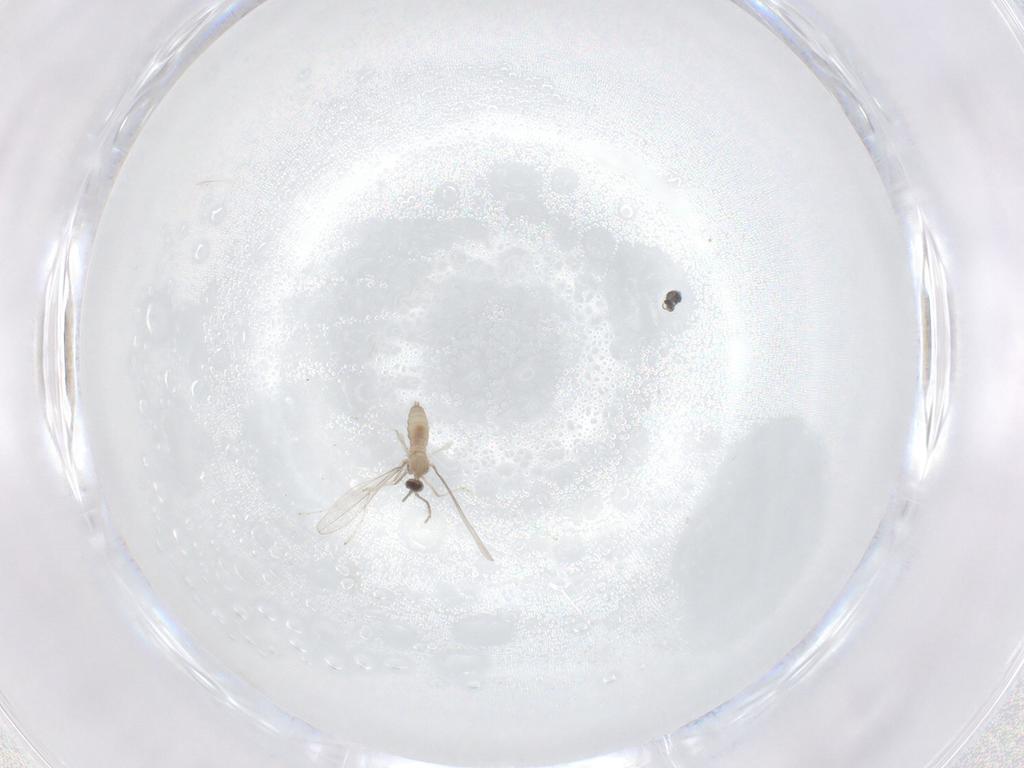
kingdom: Animalia
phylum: Arthropoda
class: Insecta
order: Diptera
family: Cecidomyiidae
